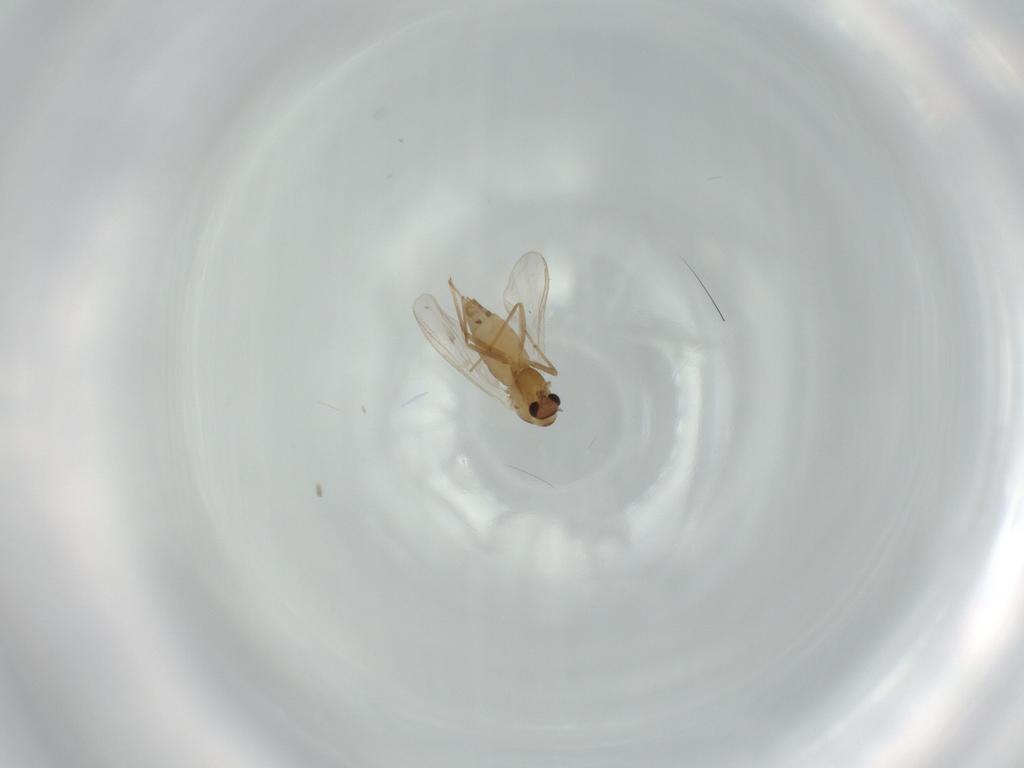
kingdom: Animalia
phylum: Arthropoda
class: Insecta
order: Diptera
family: Chironomidae
